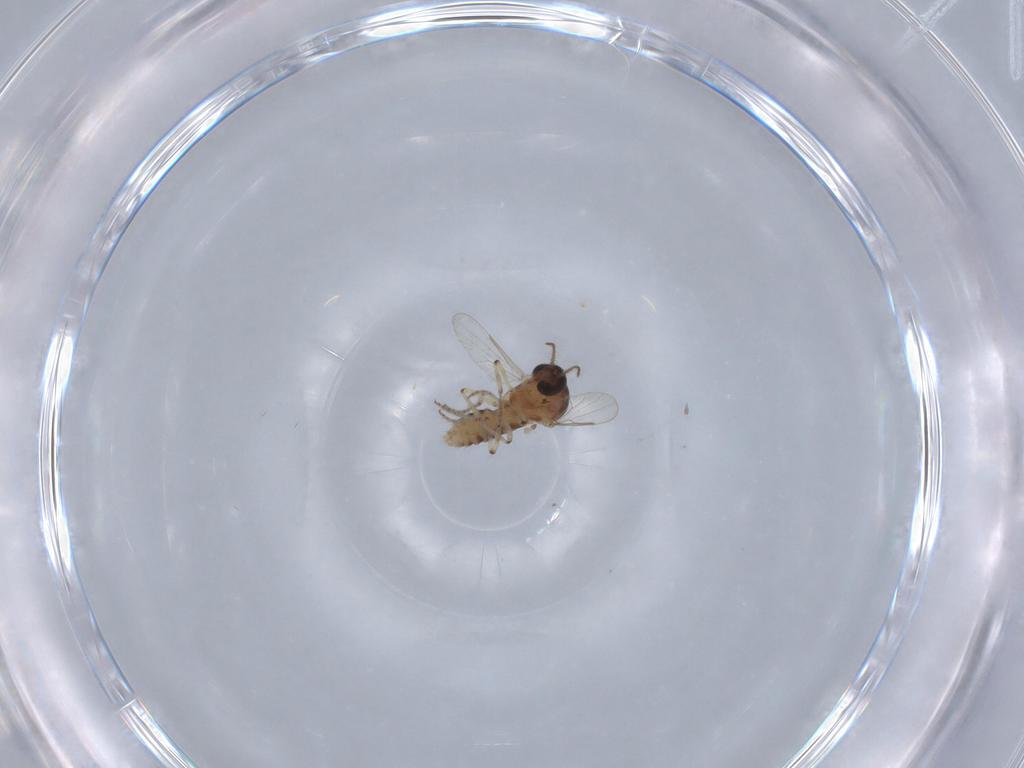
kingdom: Animalia
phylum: Arthropoda
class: Insecta
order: Diptera
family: Ceratopogonidae
